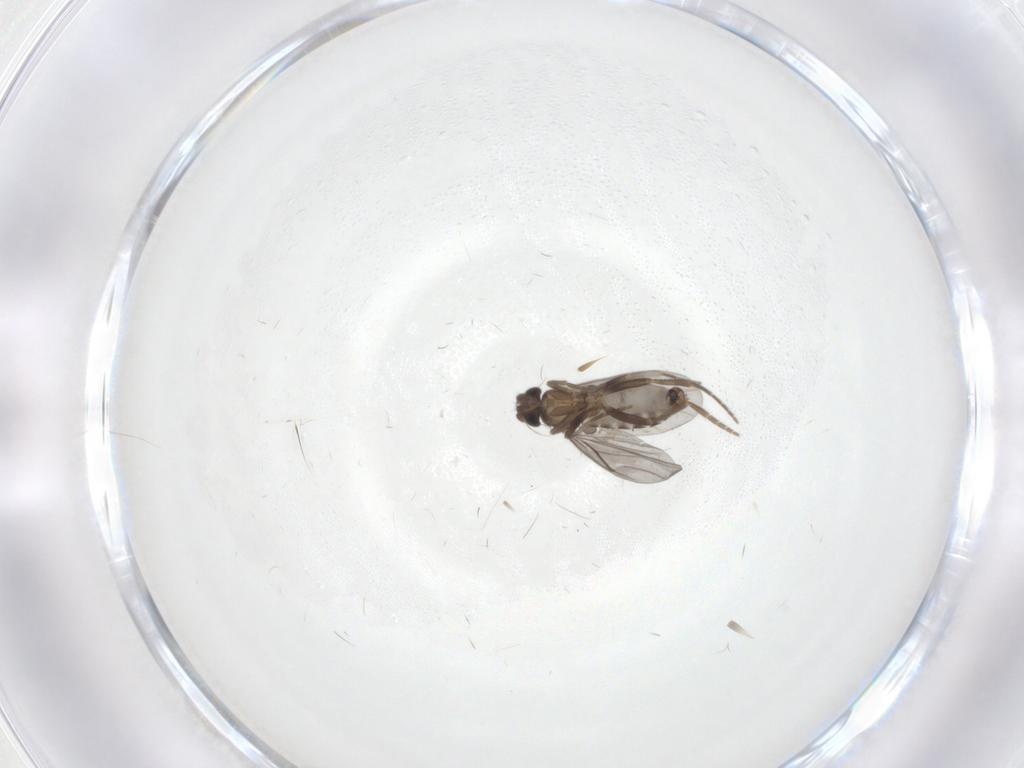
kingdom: Animalia
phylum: Arthropoda
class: Insecta
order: Diptera
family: Phoridae
